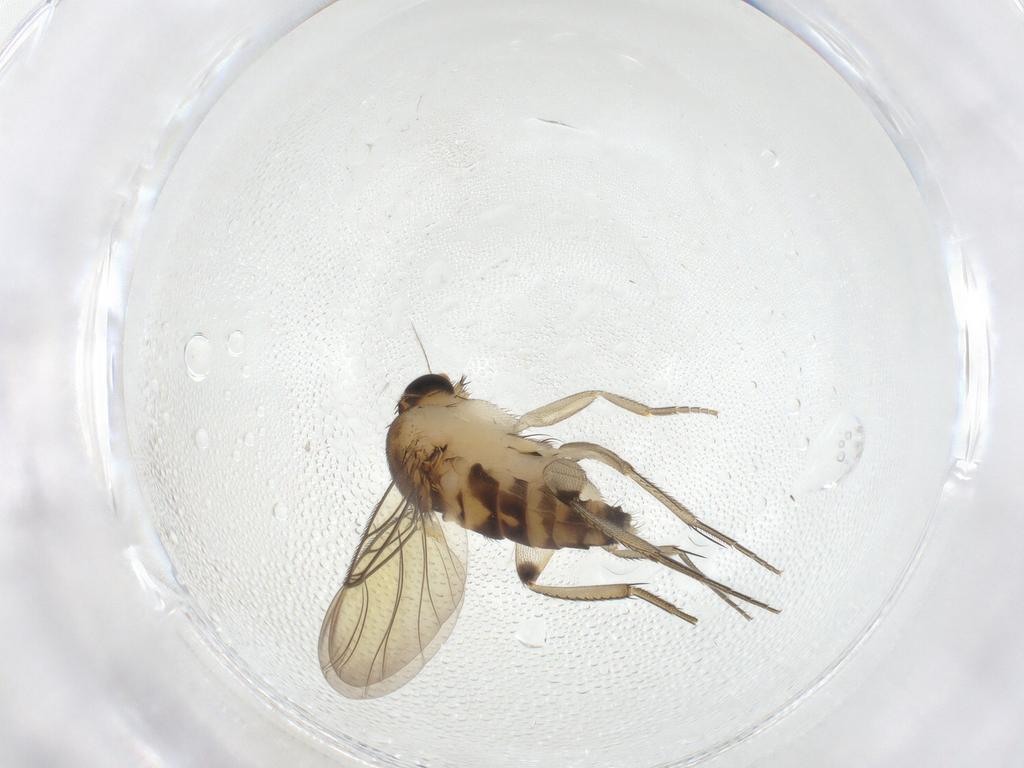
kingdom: Animalia
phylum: Arthropoda
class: Insecta
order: Diptera
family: Phoridae
